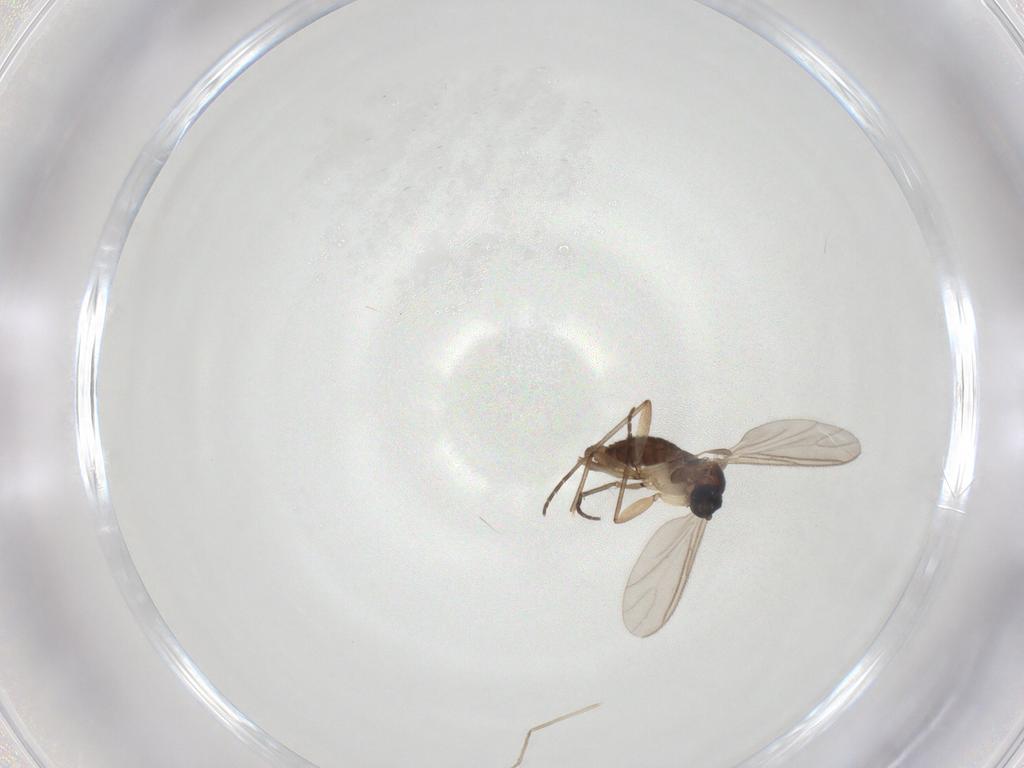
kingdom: Animalia
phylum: Arthropoda
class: Insecta
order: Diptera
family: Sciaridae
